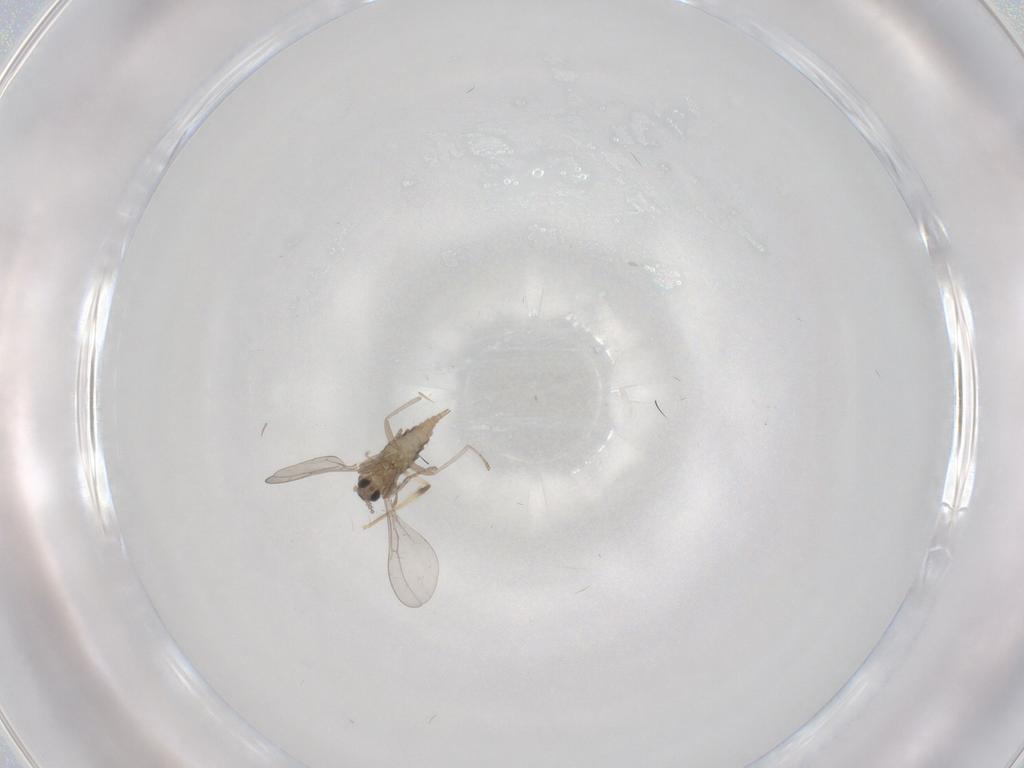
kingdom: Animalia
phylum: Arthropoda
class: Insecta
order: Diptera
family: Cecidomyiidae
